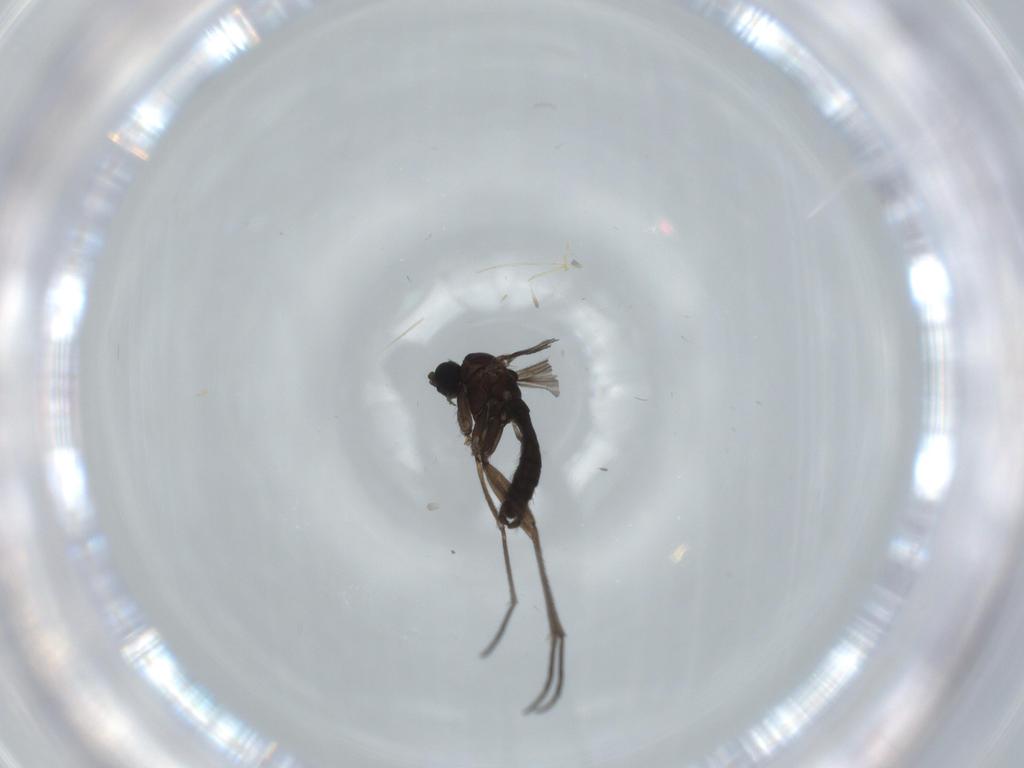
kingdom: Animalia
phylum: Arthropoda
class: Insecta
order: Diptera
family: Sciaridae
